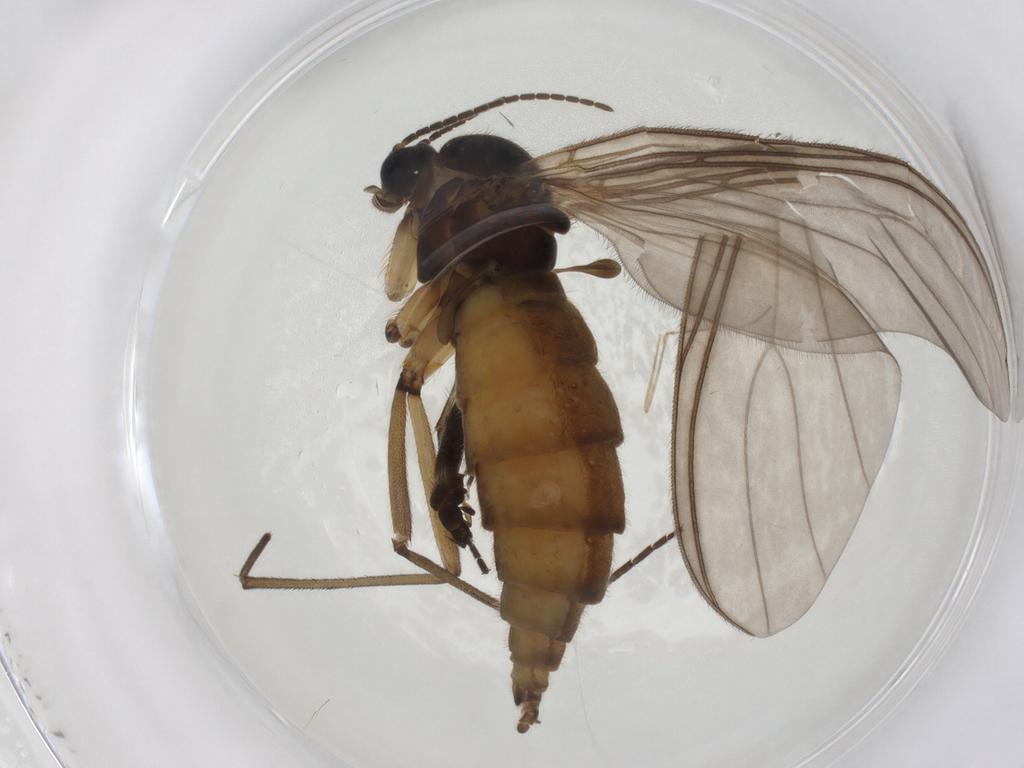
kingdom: Animalia
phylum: Arthropoda
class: Insecta
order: Diptera
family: Sciaridae
